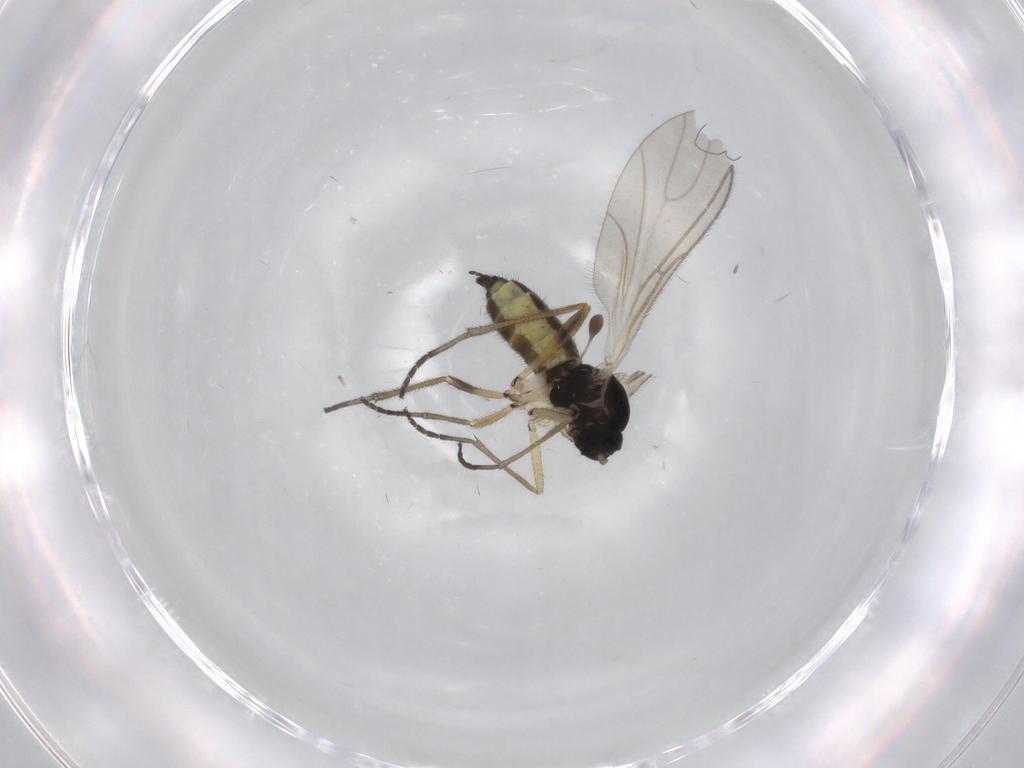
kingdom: Animalia
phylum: Arthropoda
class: Insecta
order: Diptera
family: Sciaridae
